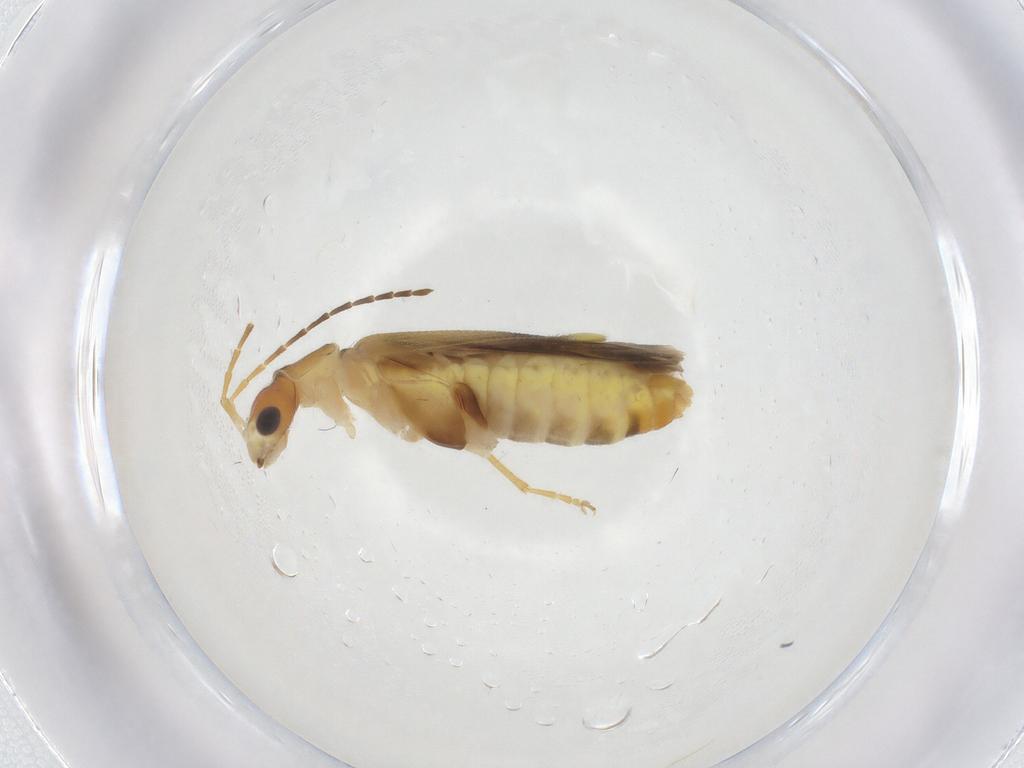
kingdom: Animalia
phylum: Arthropoda
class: Insecta
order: Coleoptera
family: Cantharidae
